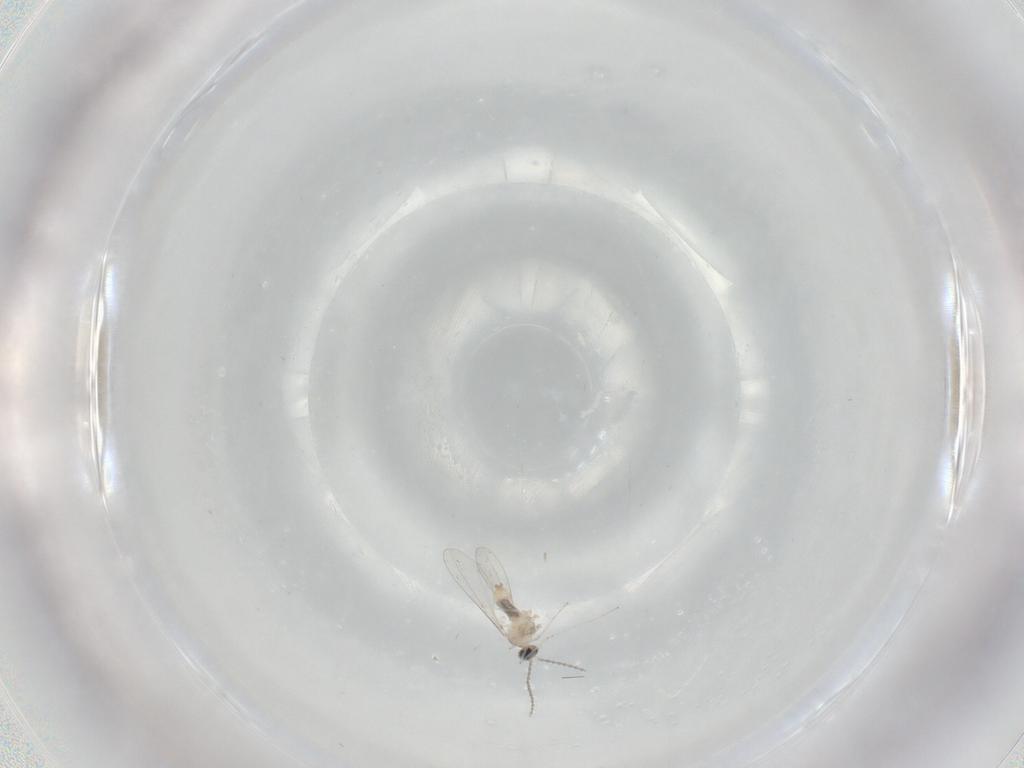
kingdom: Animalia
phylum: Arthropoda
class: Insecta
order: Diptera
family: Cecidomyiidae
